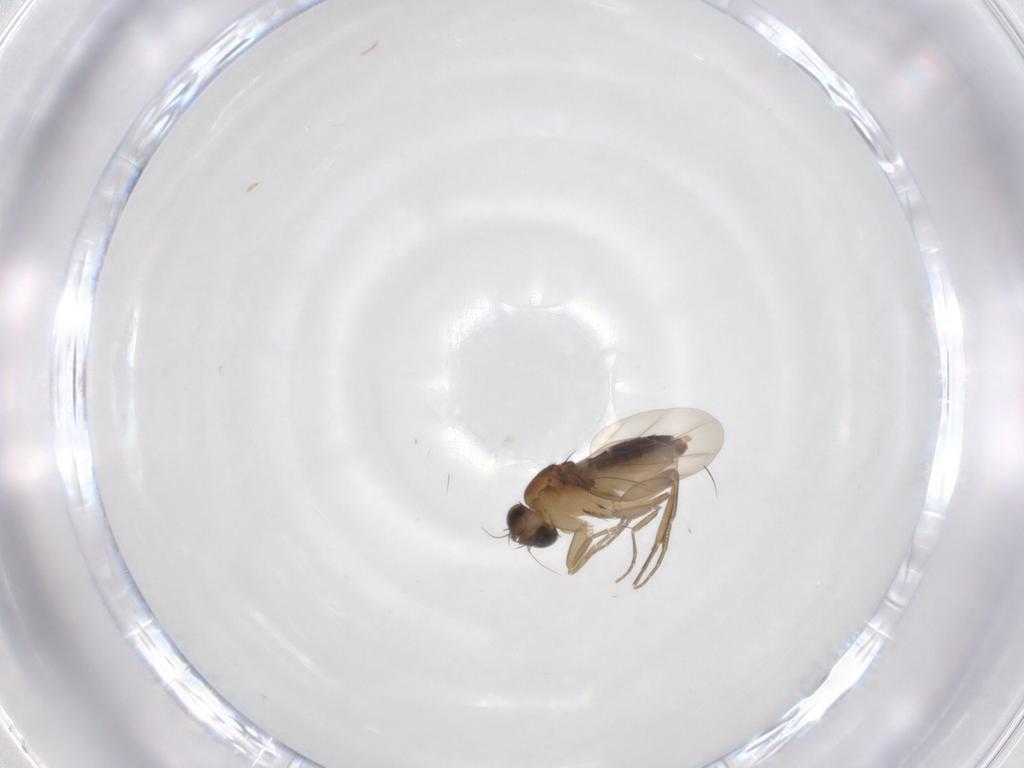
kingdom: Animalia
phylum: Arthropoda
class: Insecta
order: Diptera
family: Phoridae
